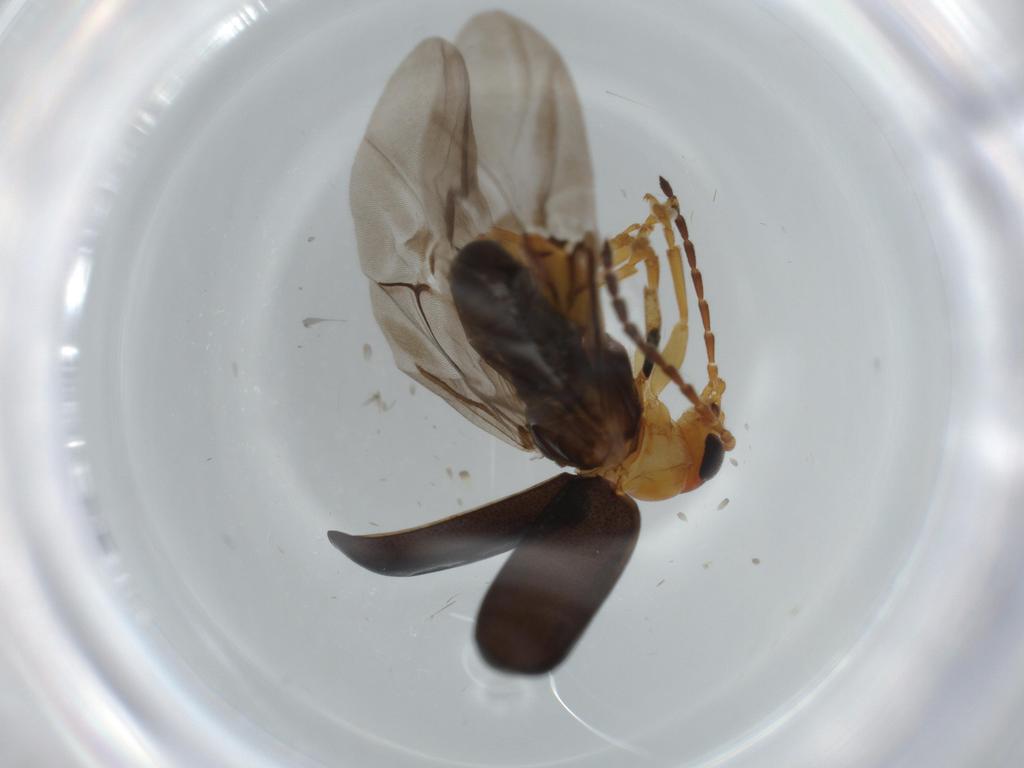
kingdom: Animalia
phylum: Arthropoda
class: Insecta
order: Coleoptera
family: Chrysomelidae
